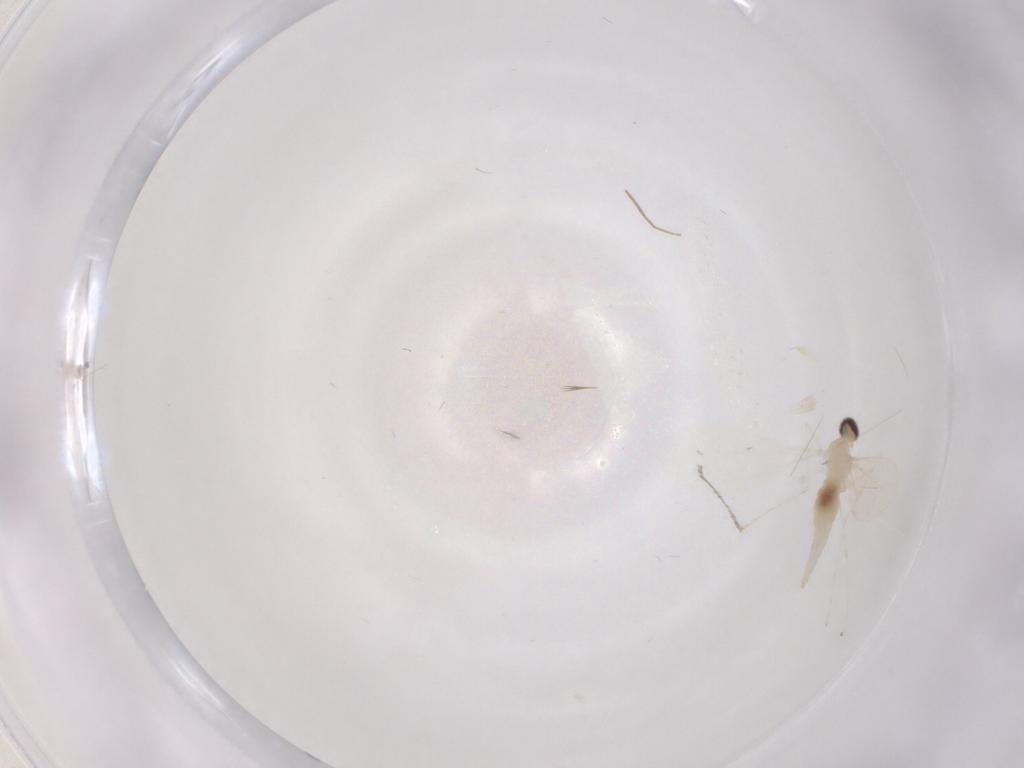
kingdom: Animalia
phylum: Arthropoda
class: Insecta
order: Diptera
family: Cecidomyiidae
